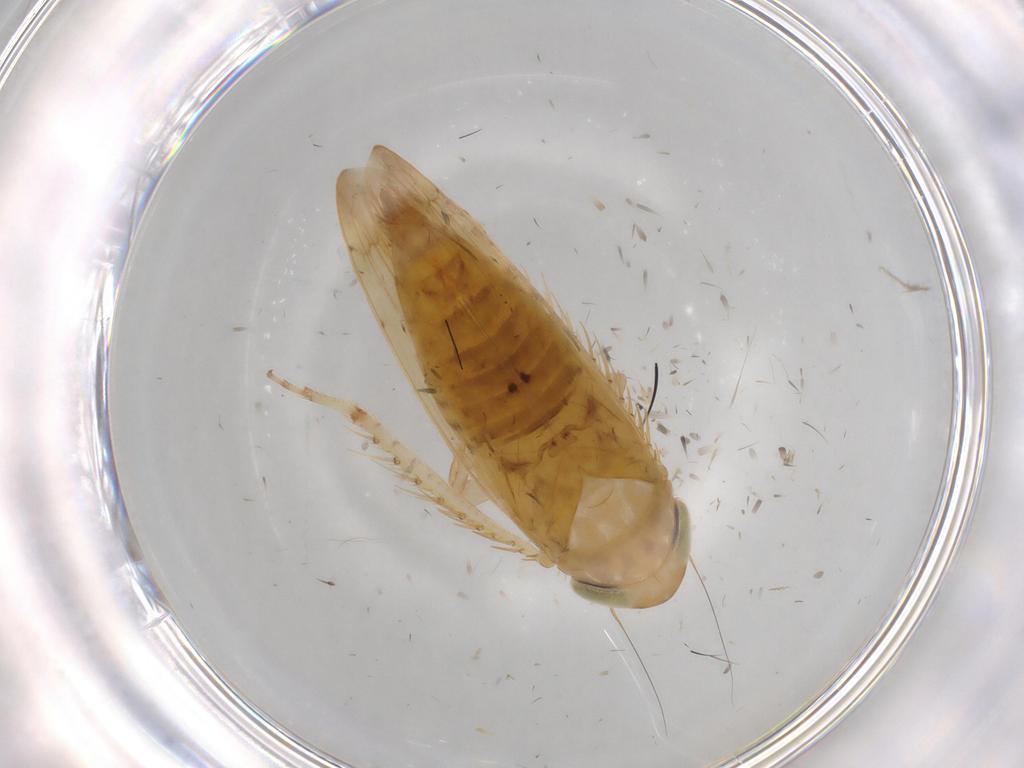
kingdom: Animalia
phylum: Arthropoda
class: Insecta
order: Hemiptera
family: Cicadellidae
